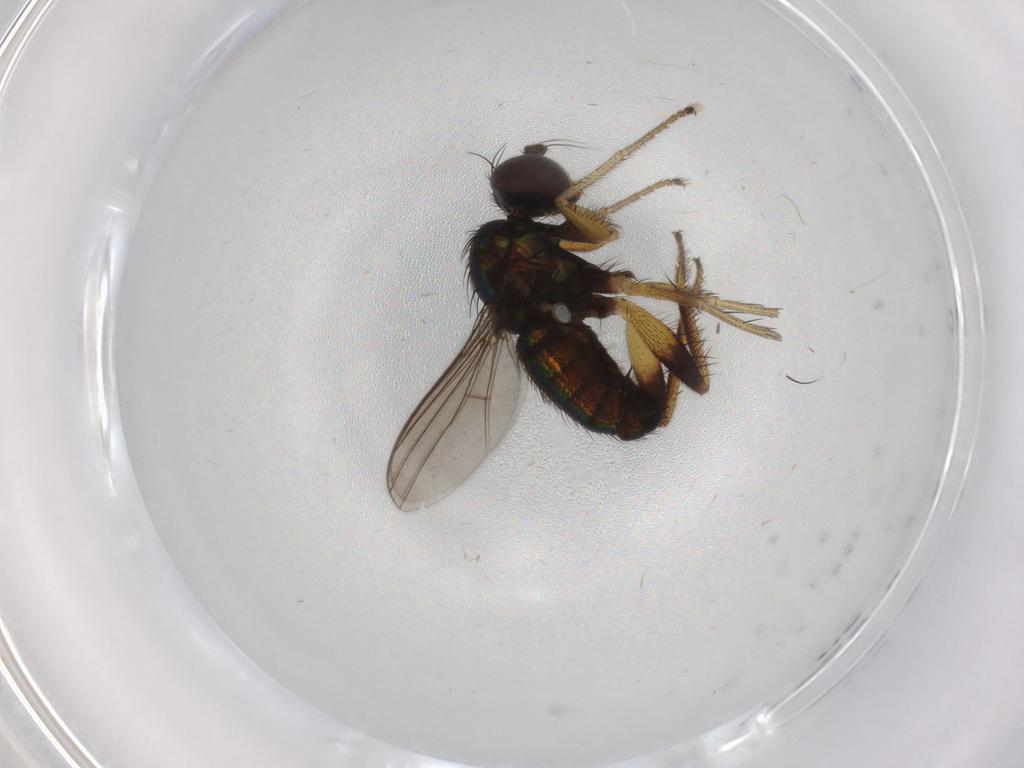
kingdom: Animalia
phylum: Arthropoda
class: Insecta
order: Diptera
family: Dolichopodidae
